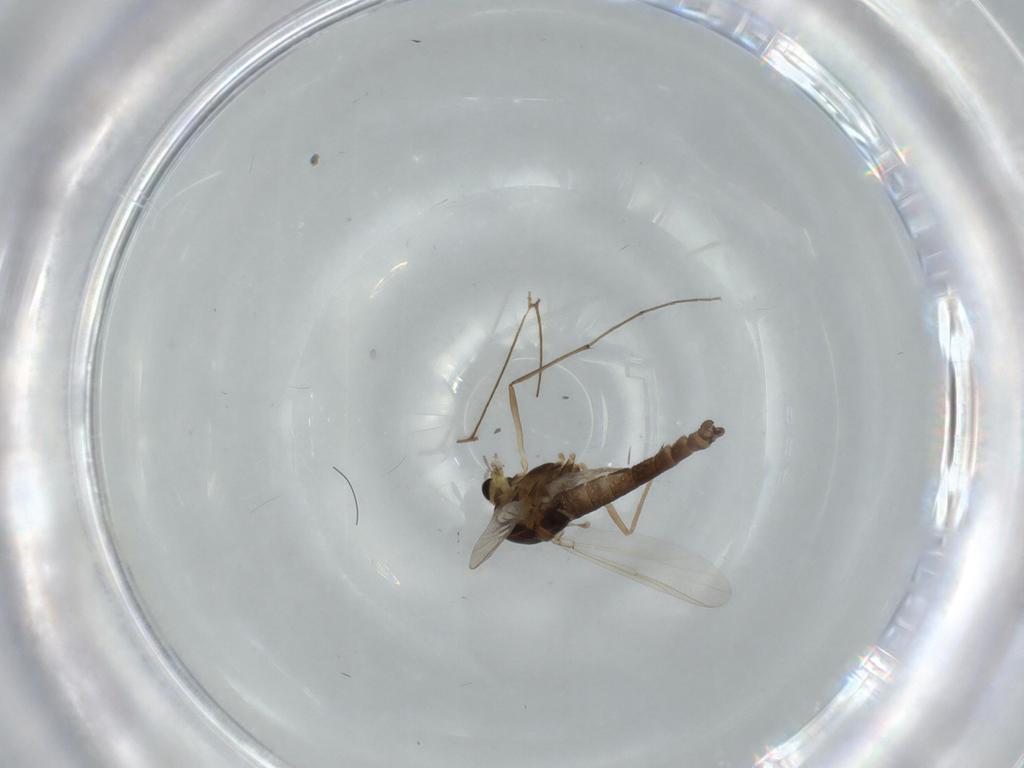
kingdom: Animalia
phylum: Arthropoda
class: Insecta
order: Diptera
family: Chironomidae
